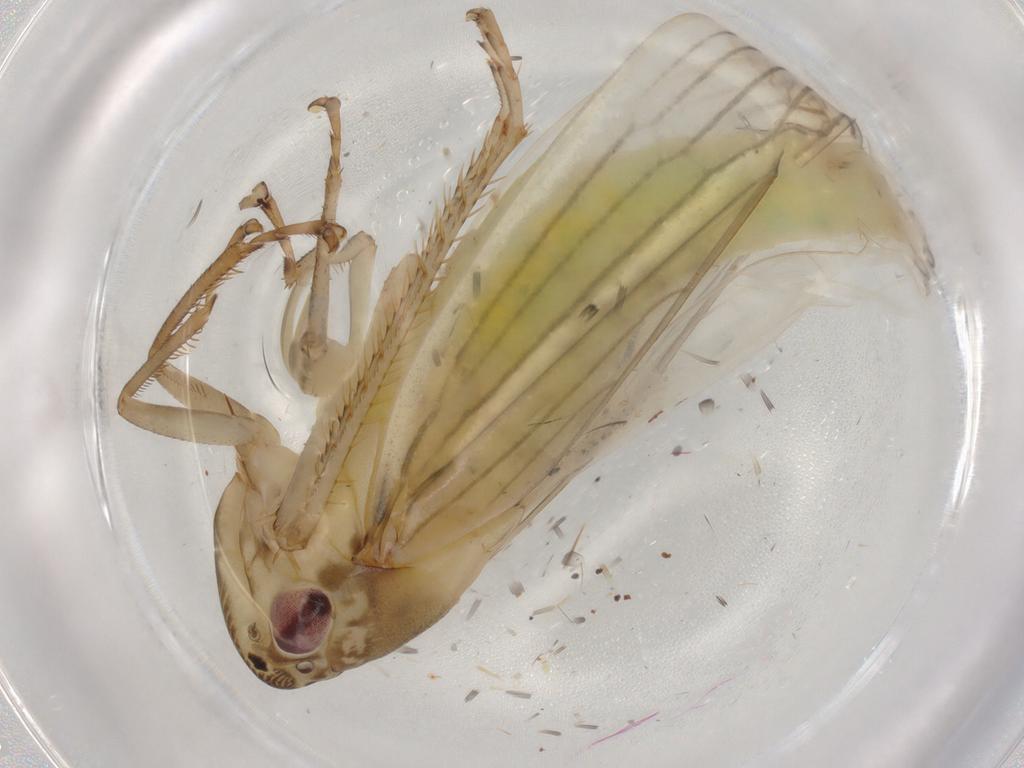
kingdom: Animalia
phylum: Arthropoda
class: Insecta
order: Hemiptera
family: Cicadellidae
